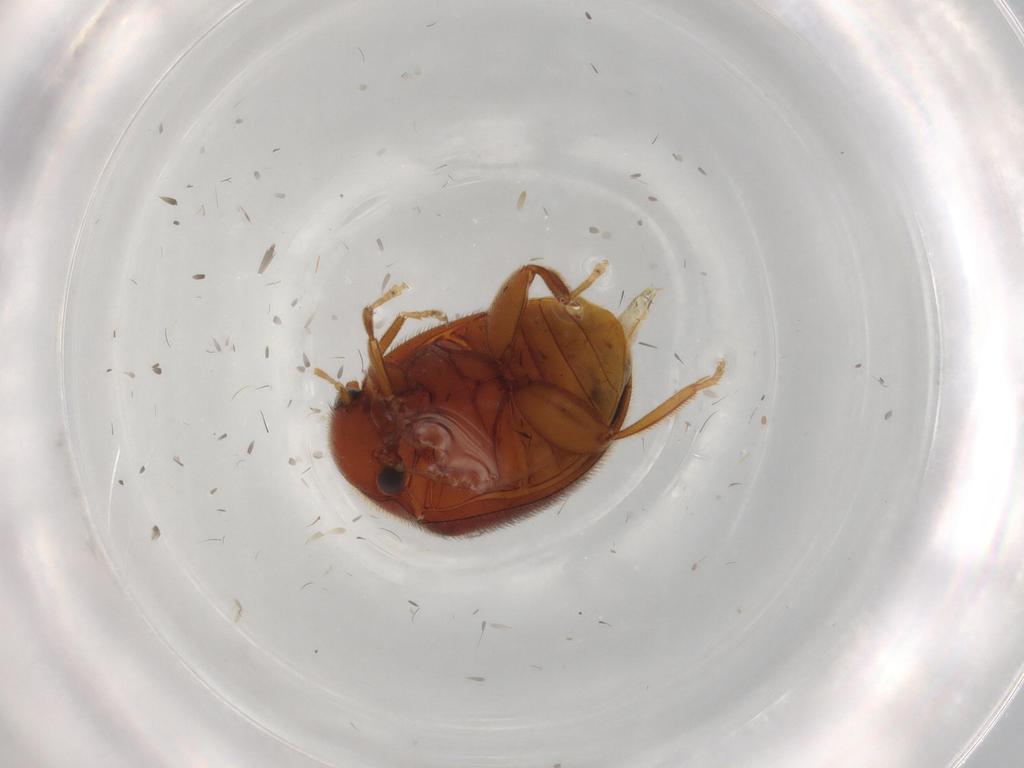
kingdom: Animalia
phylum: Arthropoda
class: Insecta
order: Coleoptera
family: Scirtidae
